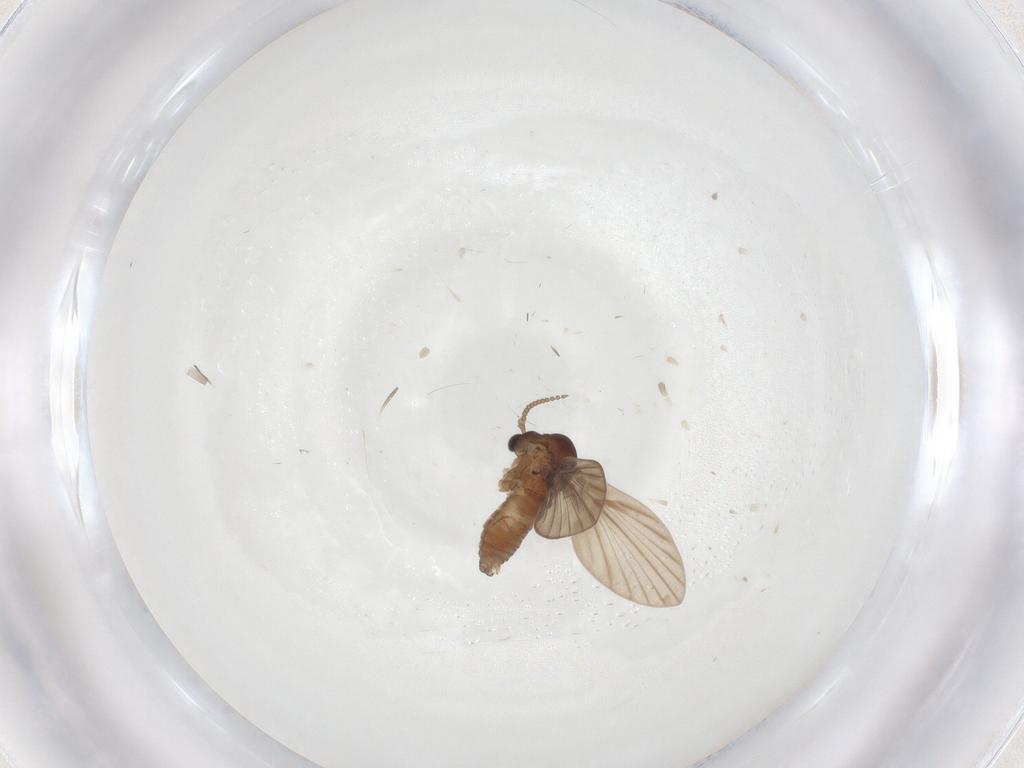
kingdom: Animalia
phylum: Arthropoda
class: Insecta
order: Diptera
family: Psychodidae
